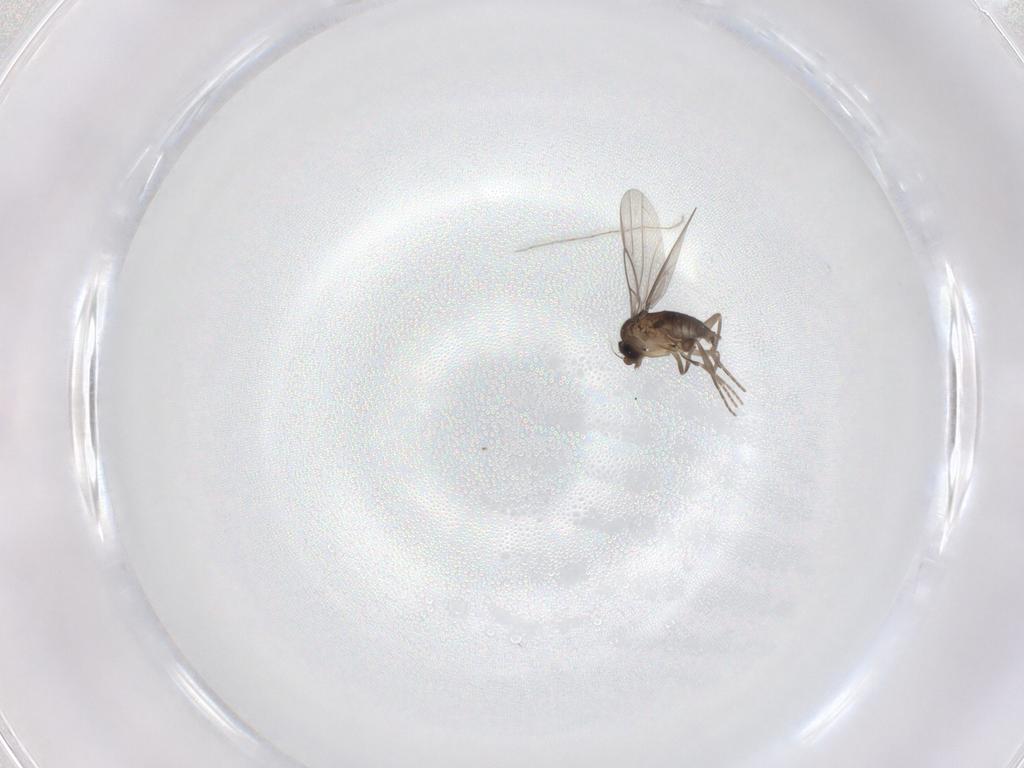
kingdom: Animalia
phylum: Arthropoda
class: Insecta
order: Diptera
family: Phoridae
